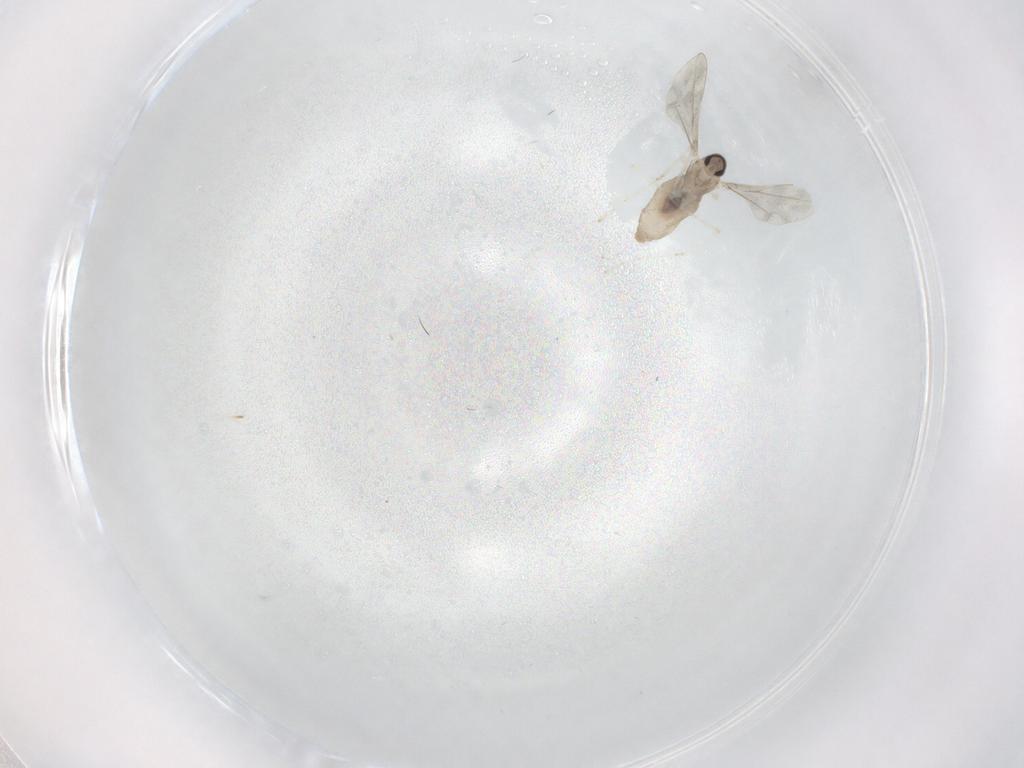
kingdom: Animalia
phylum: Arthropoda
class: Insecta
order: Diptera
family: Cecidomyiidae
